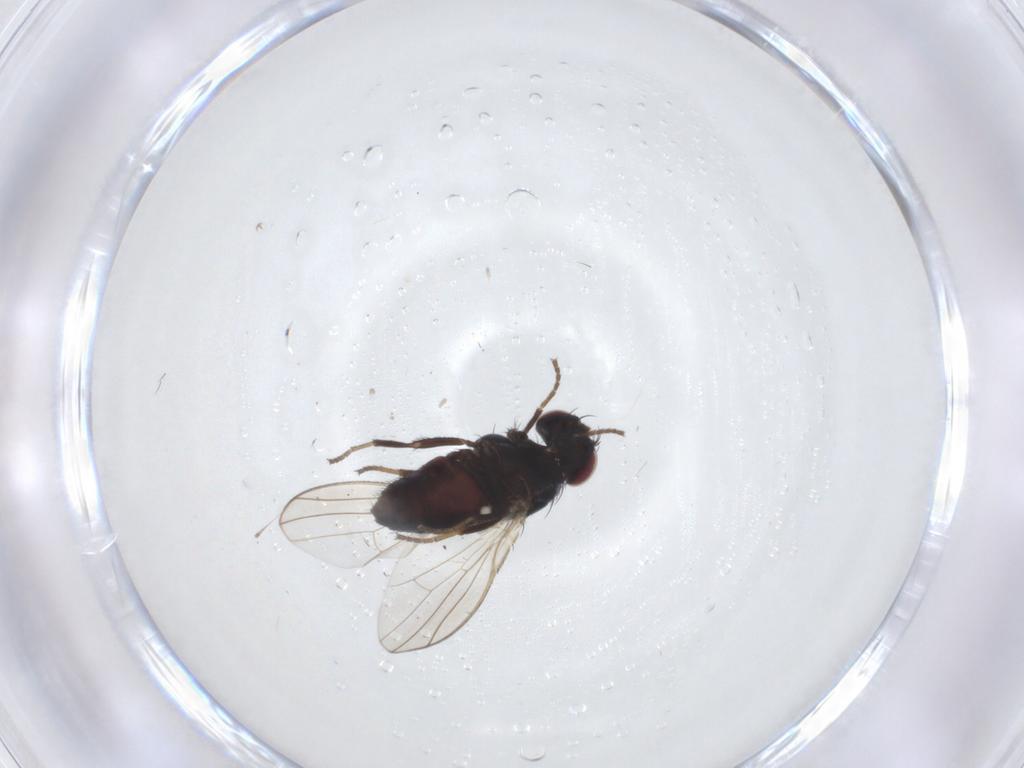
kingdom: Animalia
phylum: Arthropoda
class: Insecta
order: Diptera
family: Carnidae
